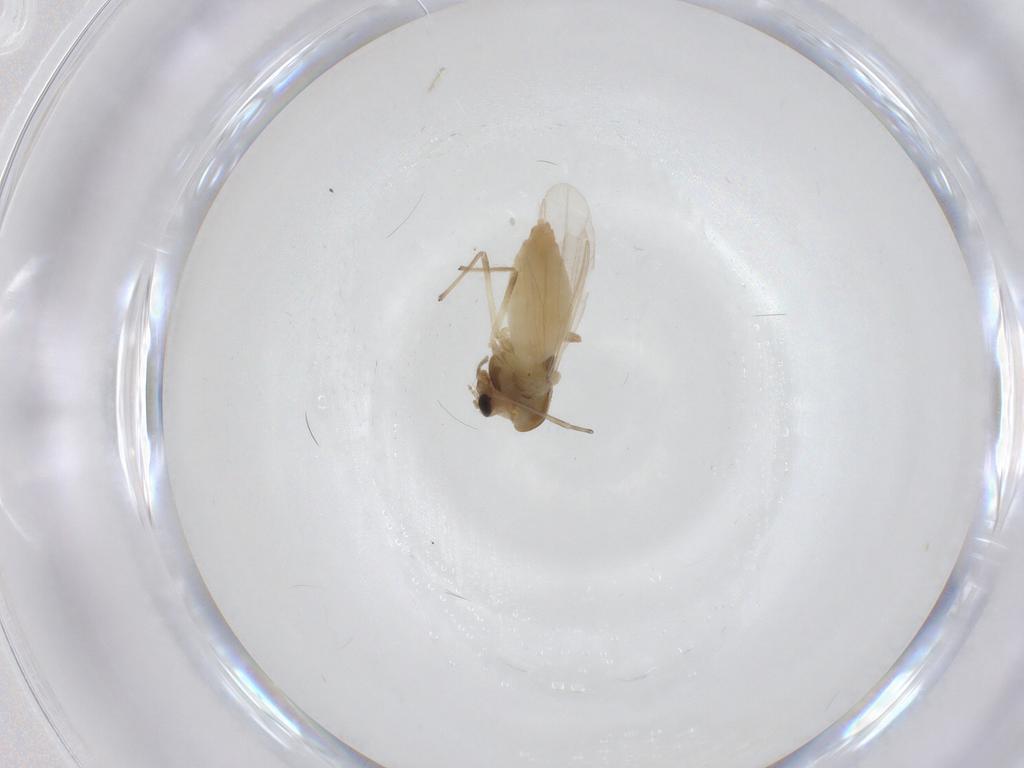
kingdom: Animalia
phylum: Arthropoda
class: Insecta
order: Diptera
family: Chironomidae
